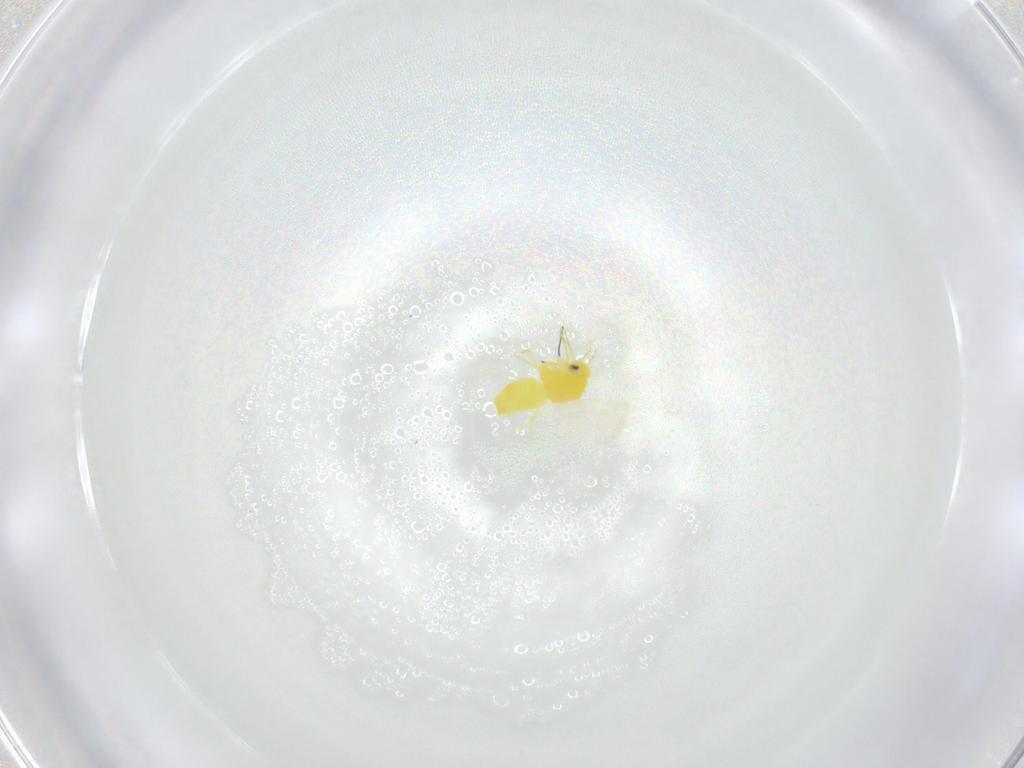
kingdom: Animalia
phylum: Arthropoda
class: Insecta
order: Hemiptera
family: Aleyrodidae
